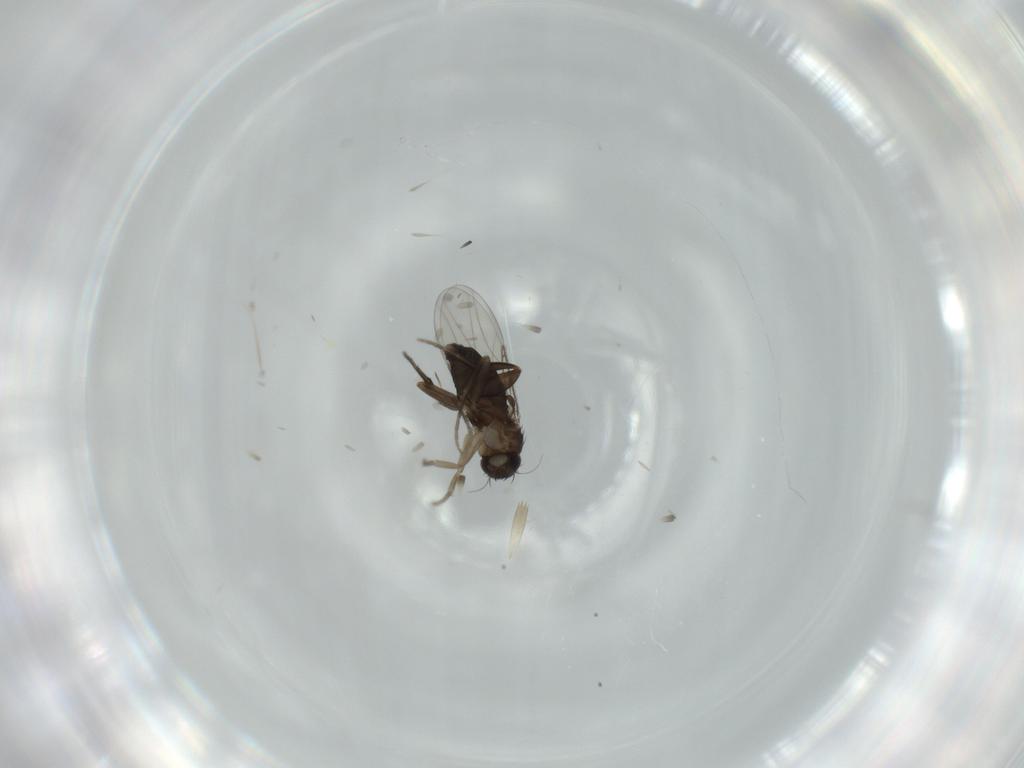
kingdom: Animalia
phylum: Arthropoda
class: Insecta
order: Diptera
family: Phoridae
